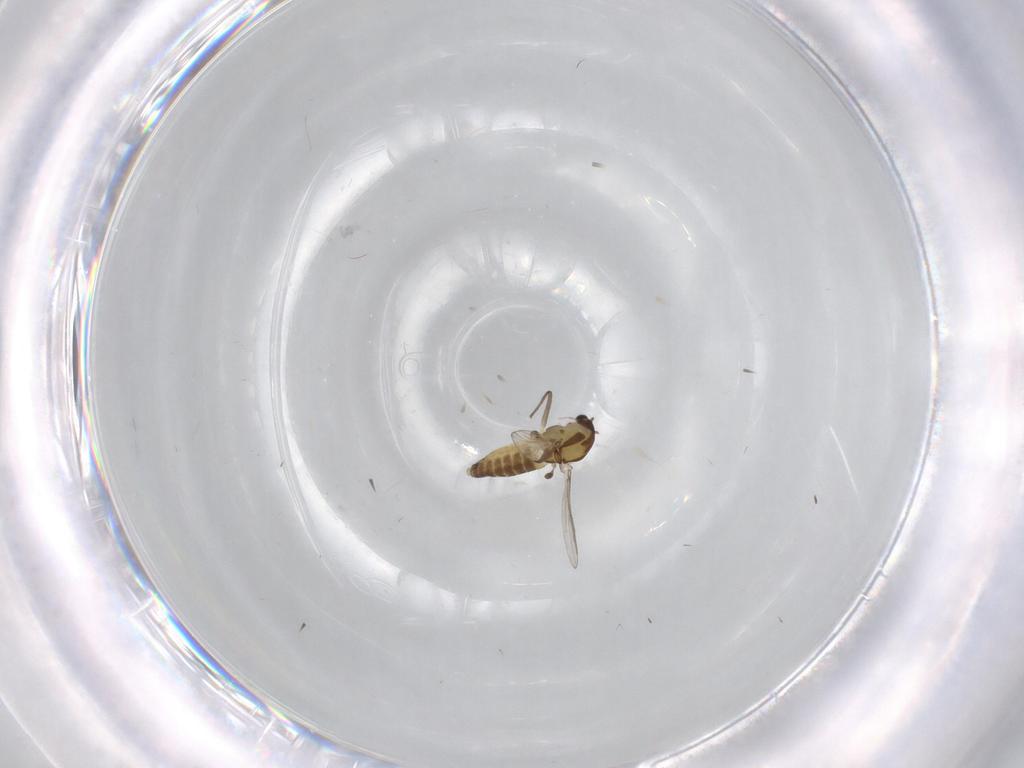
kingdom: Animalia
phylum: Arthropoda
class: Insecta
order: Diptera
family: Chironomidae
